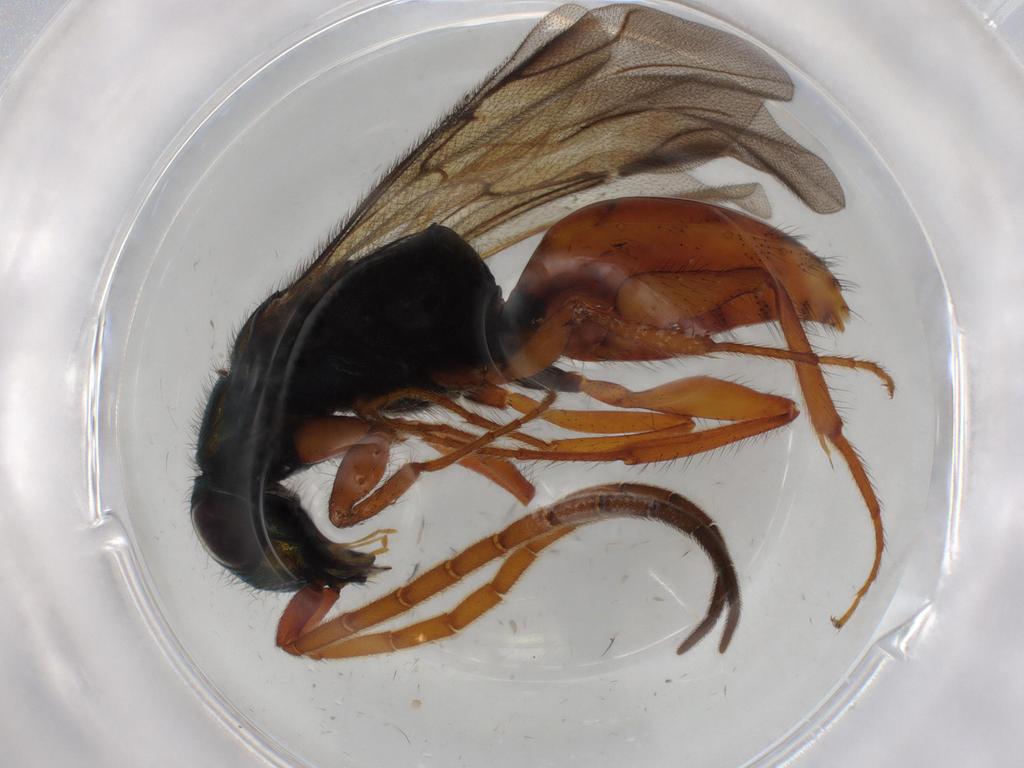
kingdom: Animalia
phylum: Arthropoda
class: Insecta
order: Hymenoptera
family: Chrysididae
